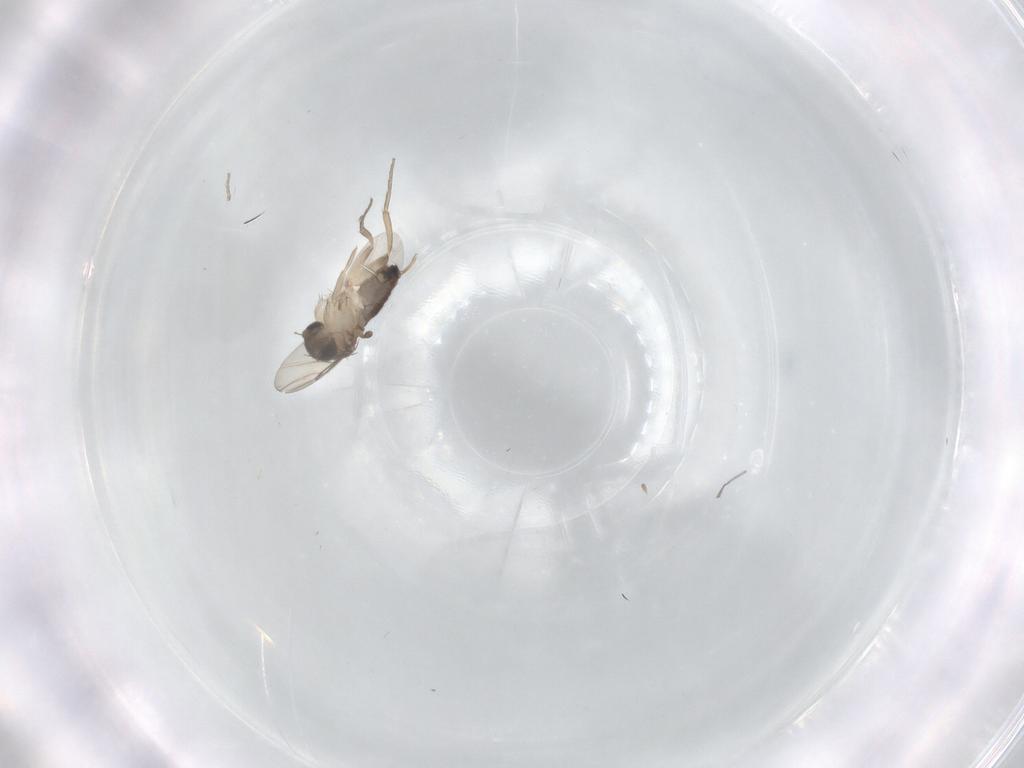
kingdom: Animalia
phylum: Arthropoda
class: Insecta
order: Diptera
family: Phoridae
